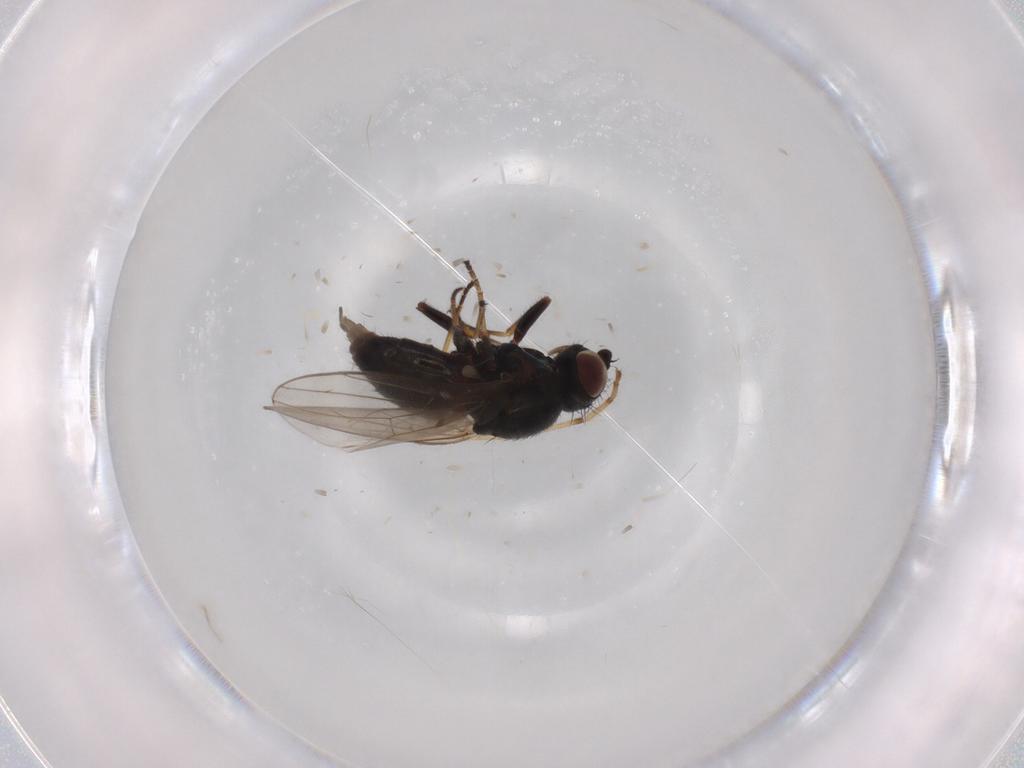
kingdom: Animalia
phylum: Arthropoda
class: Insecta
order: Diptera
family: Chloropidae
